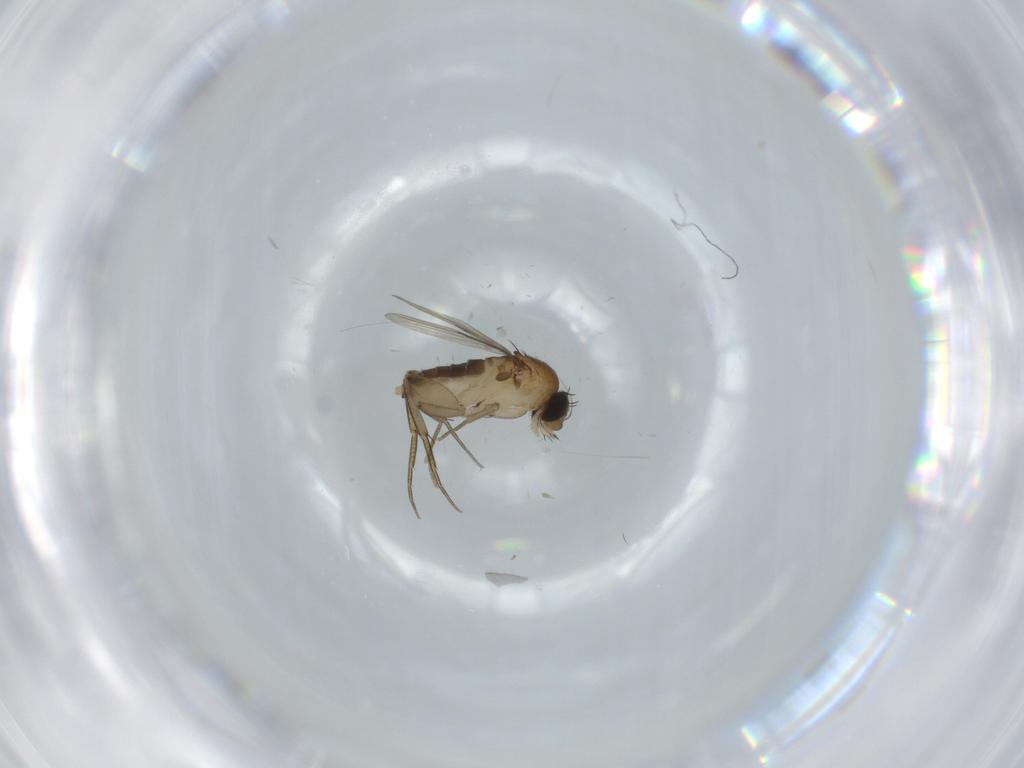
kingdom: Animalia
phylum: Arthropoda
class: Insecta
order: Diptera
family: Phoridae
